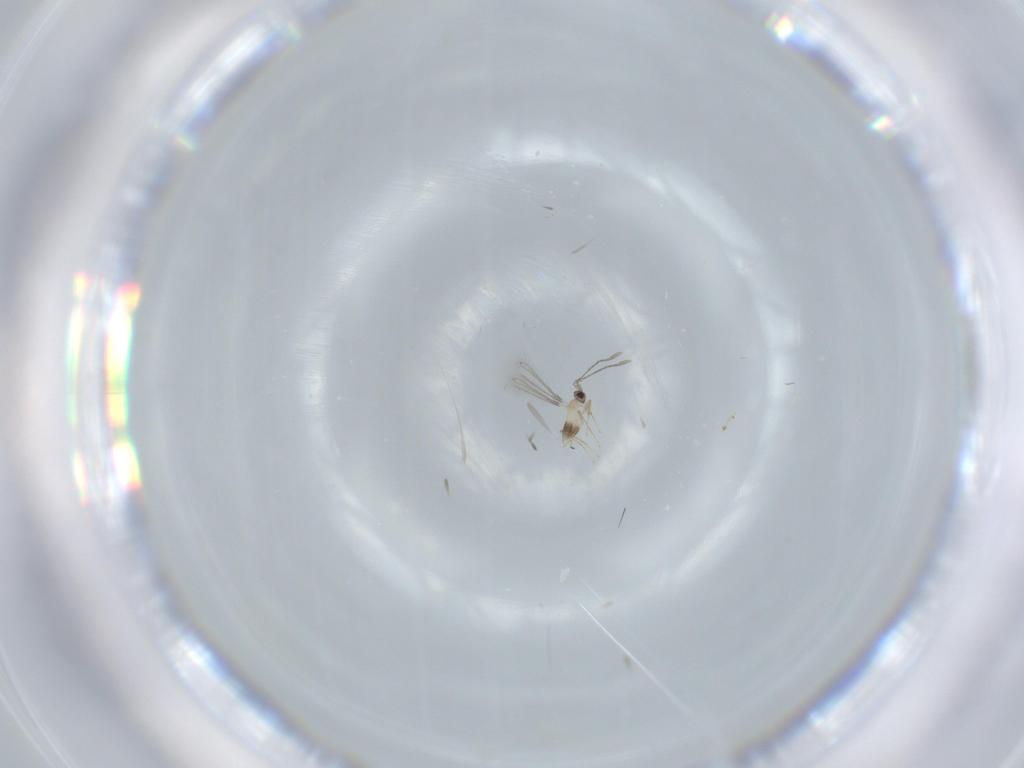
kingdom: Animalia
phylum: Arthropoda
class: Insecta
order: Hymenoptera
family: Mymaridae
